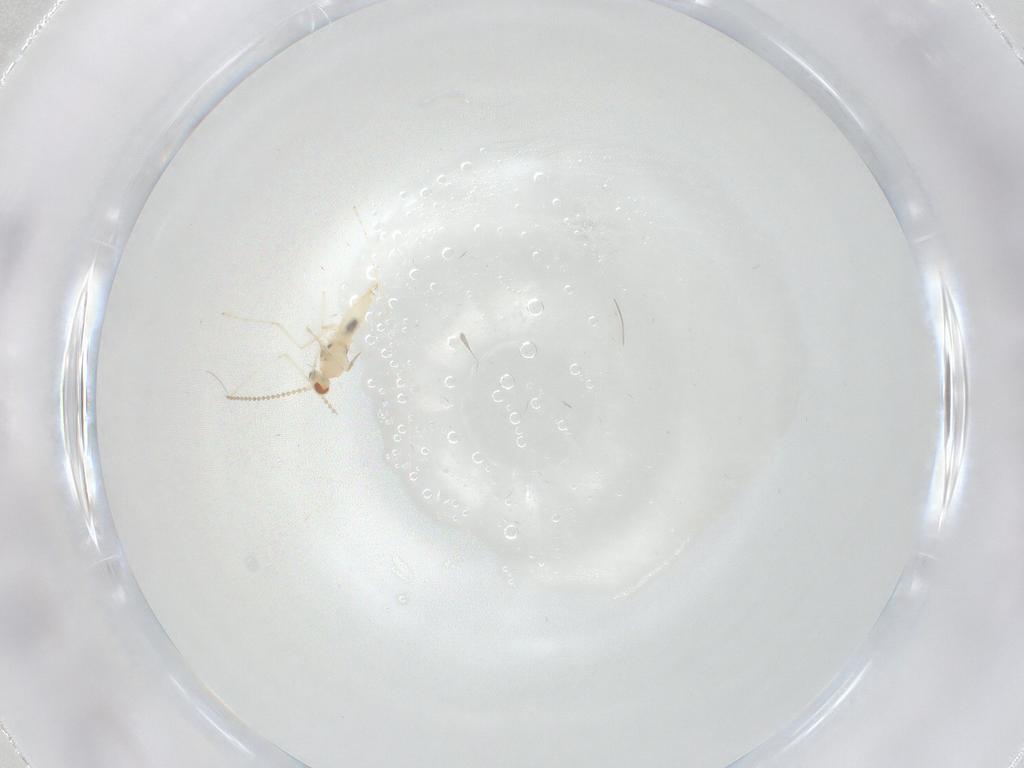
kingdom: Animalia
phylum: Arthropoda
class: Insecta
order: Diptera
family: Cecidomyiidae
